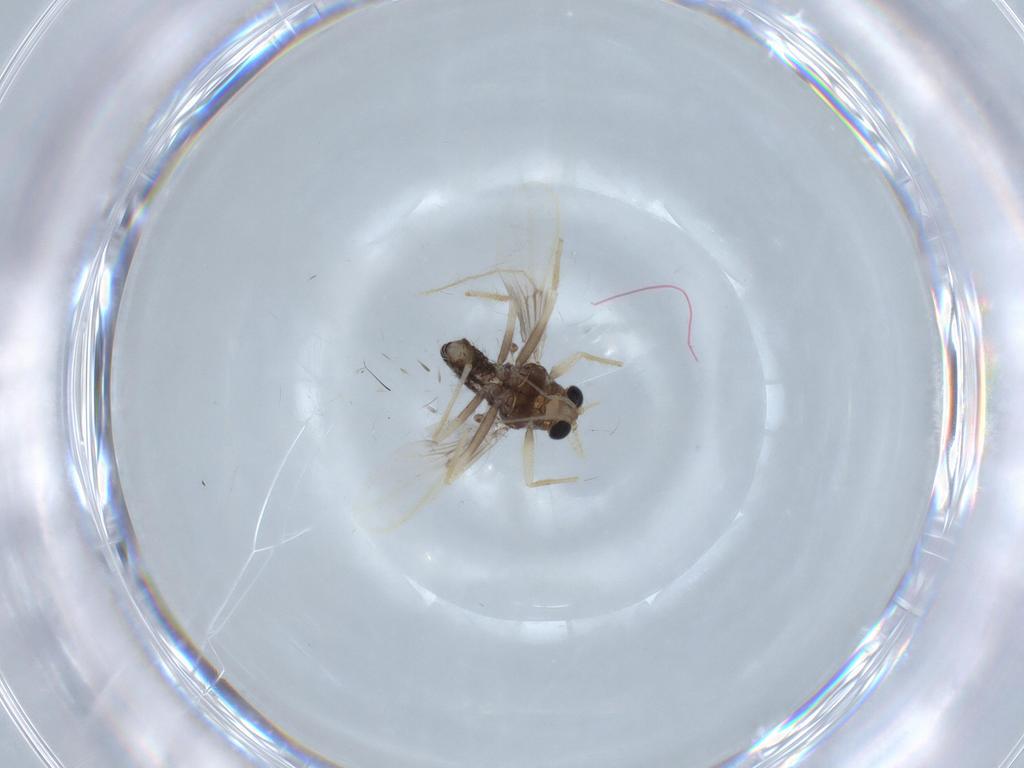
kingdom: Animalia
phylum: Arthropoda
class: Insecta
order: Diptera
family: Chironomidae
